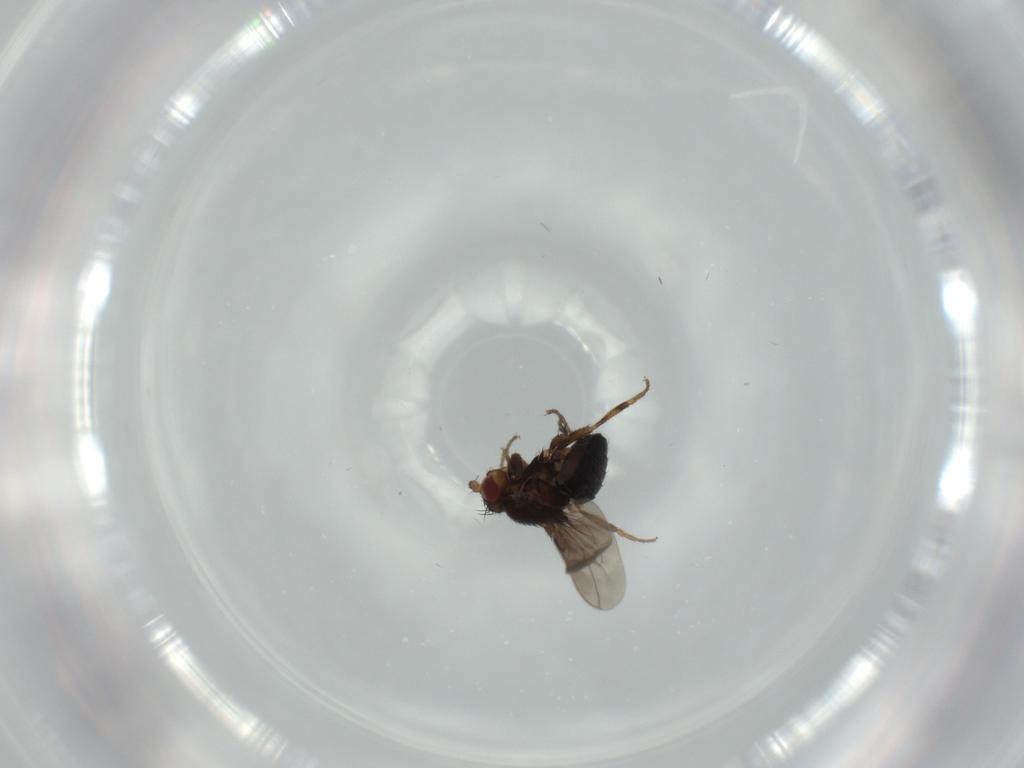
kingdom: Animalia
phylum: Arthropoda
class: Insecta
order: Diptera
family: Sphaeroceridae
